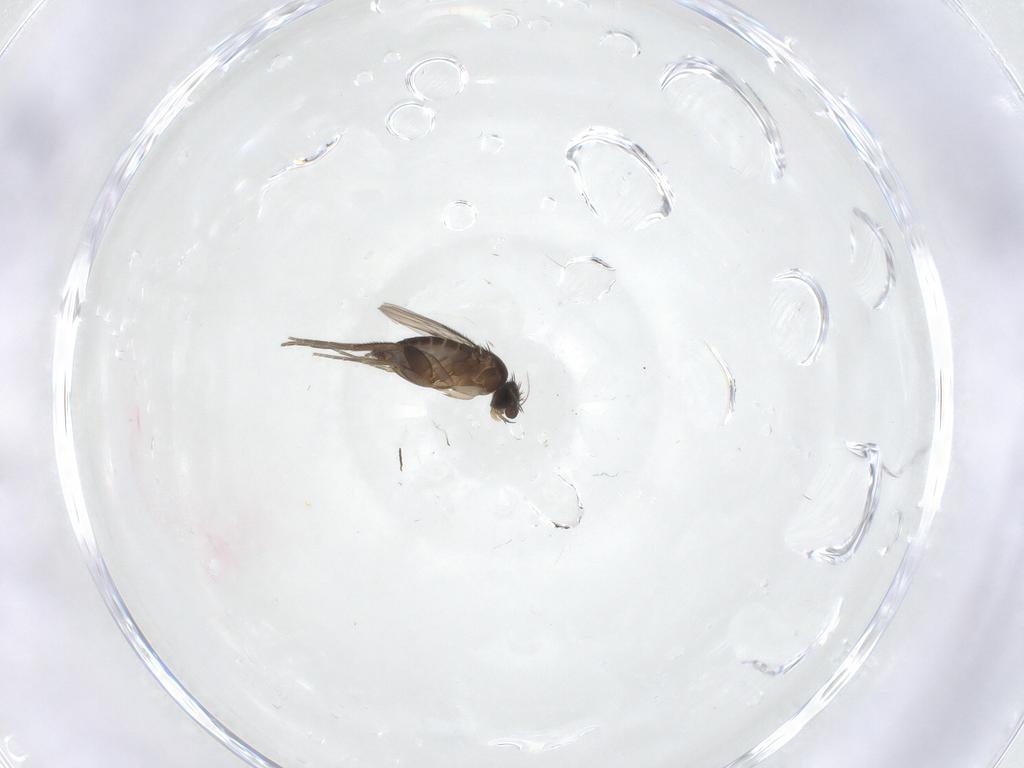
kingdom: Animalia
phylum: Arthropoda
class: Insecta
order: Diptera
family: Phoridae
